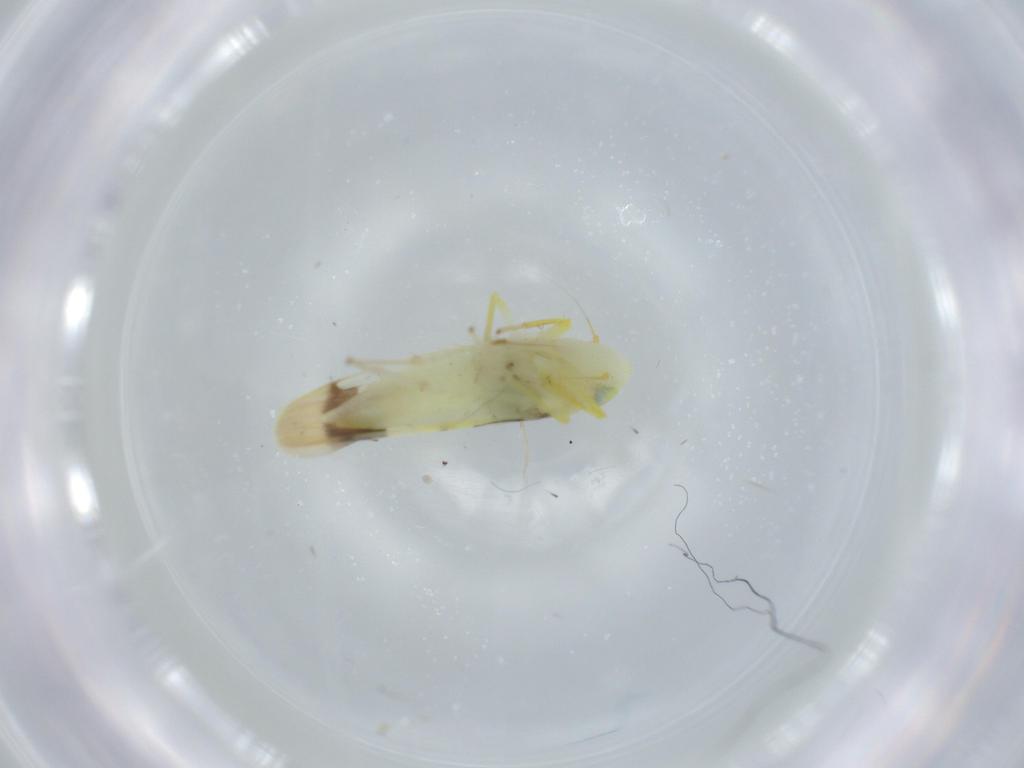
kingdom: Animalia
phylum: Arthropoda
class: Insecta
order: Hemiptera
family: Cicadellidae
